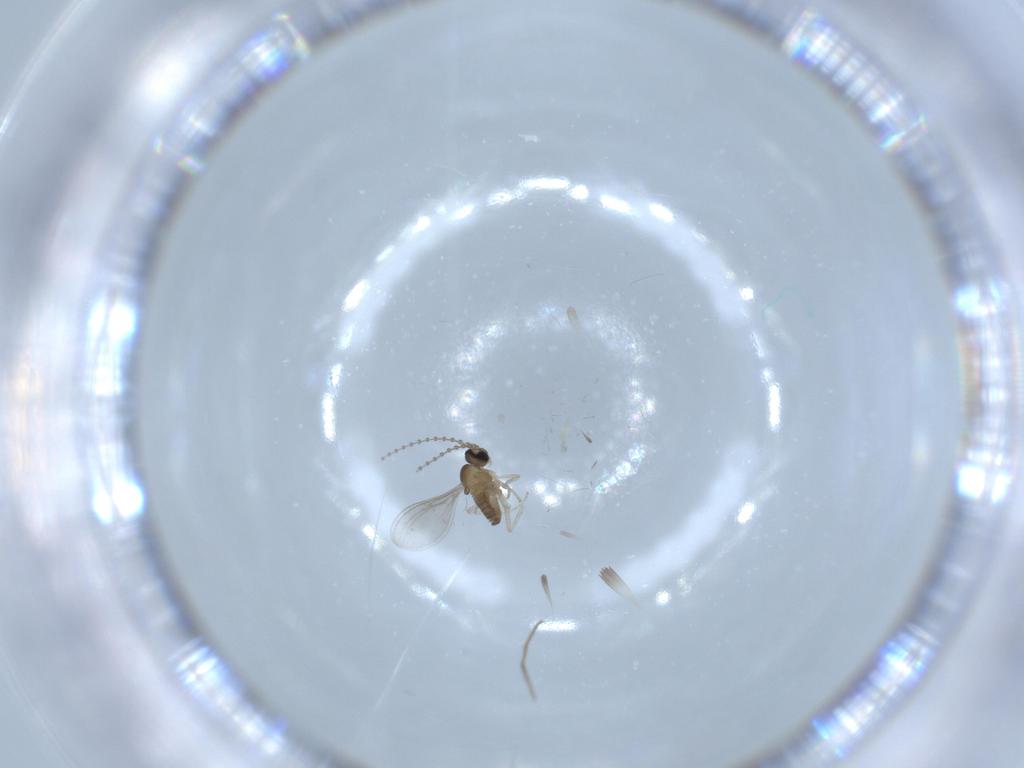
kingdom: Animalia
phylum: Arthropoda
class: Insecta
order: Diptera
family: Cecidomyiidae
